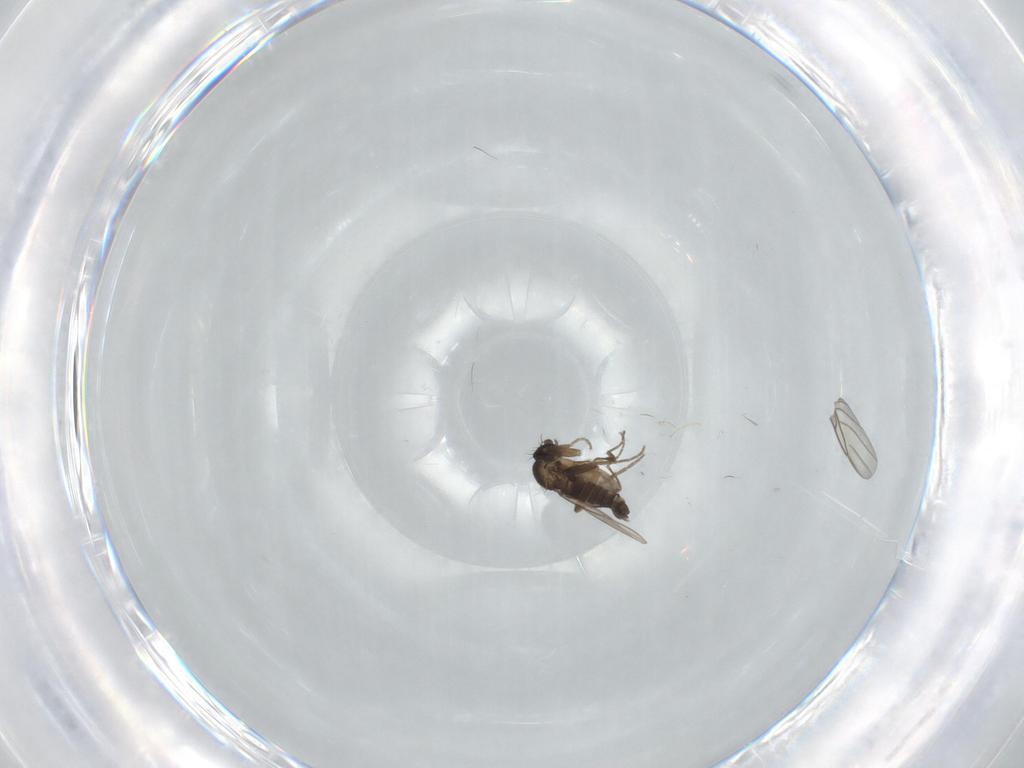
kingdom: Animalia
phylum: Arthropoda
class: Insecta
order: Diptera
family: Phoridae
